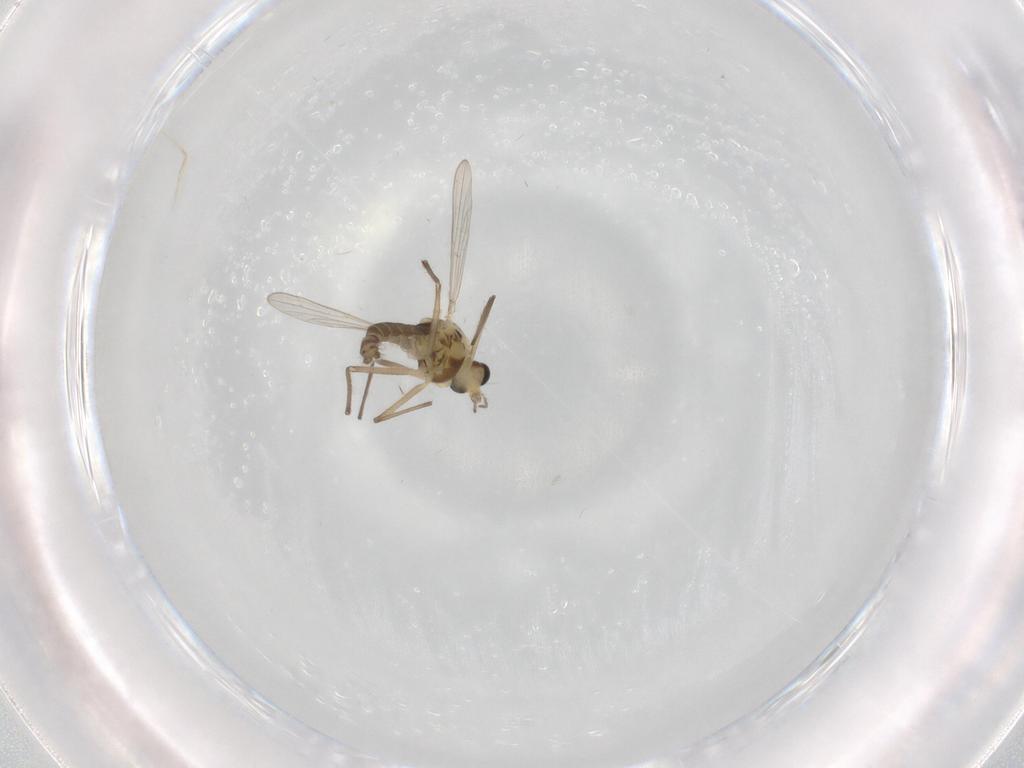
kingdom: Animalia
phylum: Arthropoda
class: Insecta
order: Diptera
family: Chironomidae
